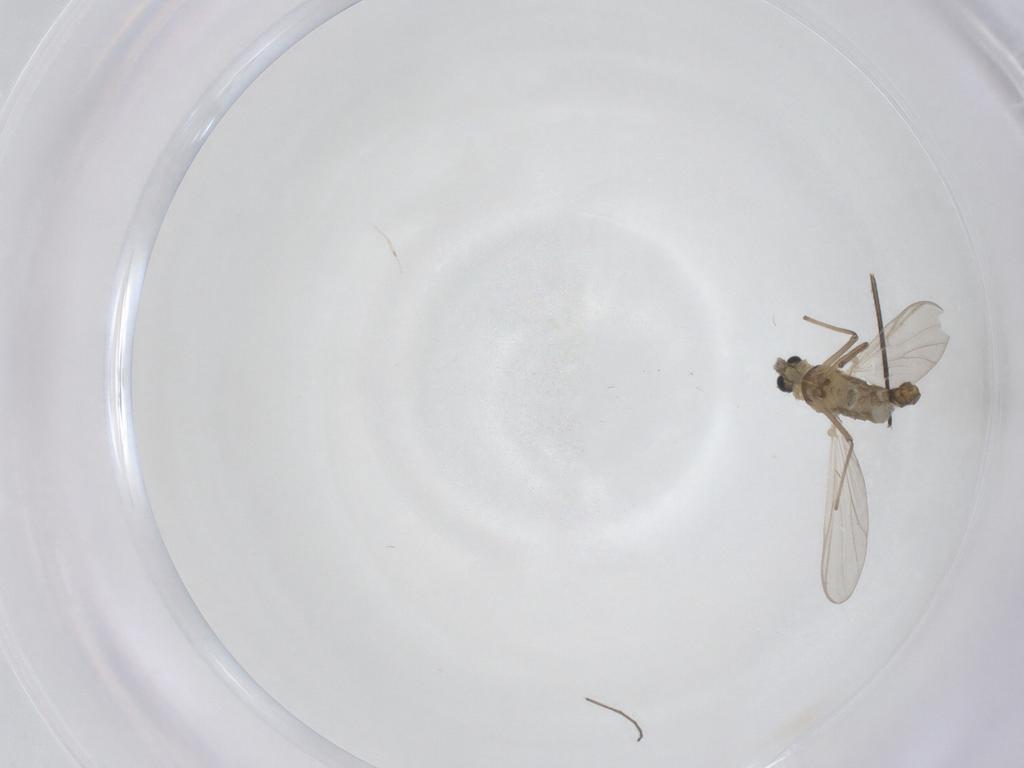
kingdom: Animalia
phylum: Arthropoda
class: Insecta
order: Diptera
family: Chironomidae
